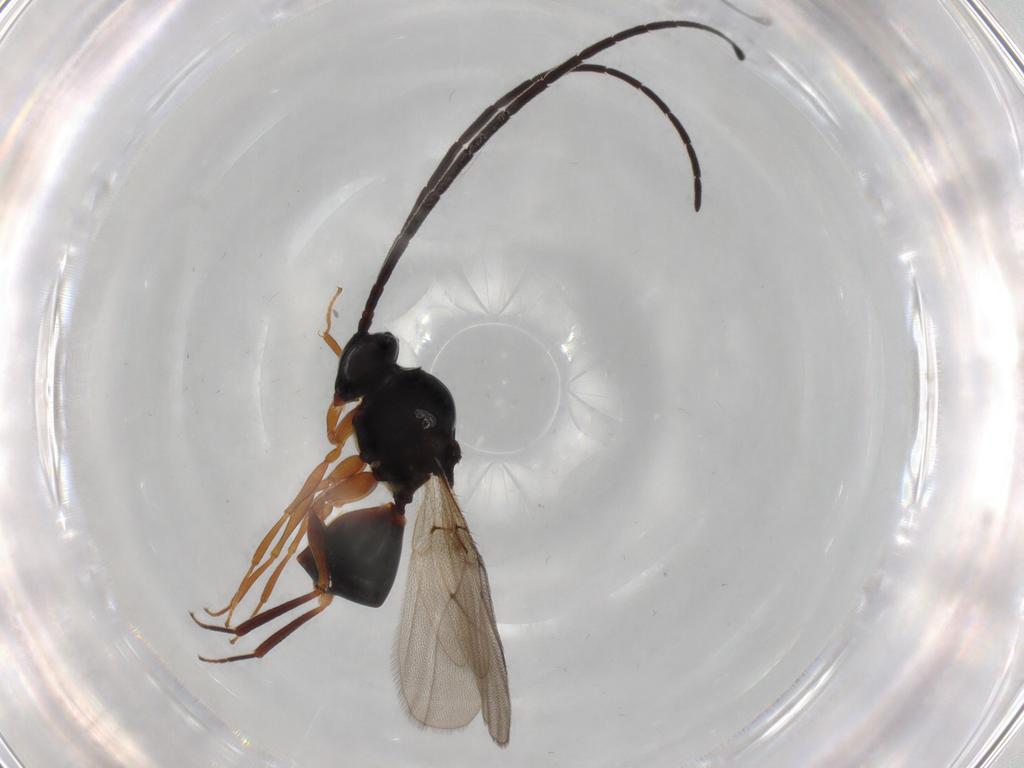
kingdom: Animalia
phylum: Arthropoda
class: Insecta
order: Hymenoptera
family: Figitidae
